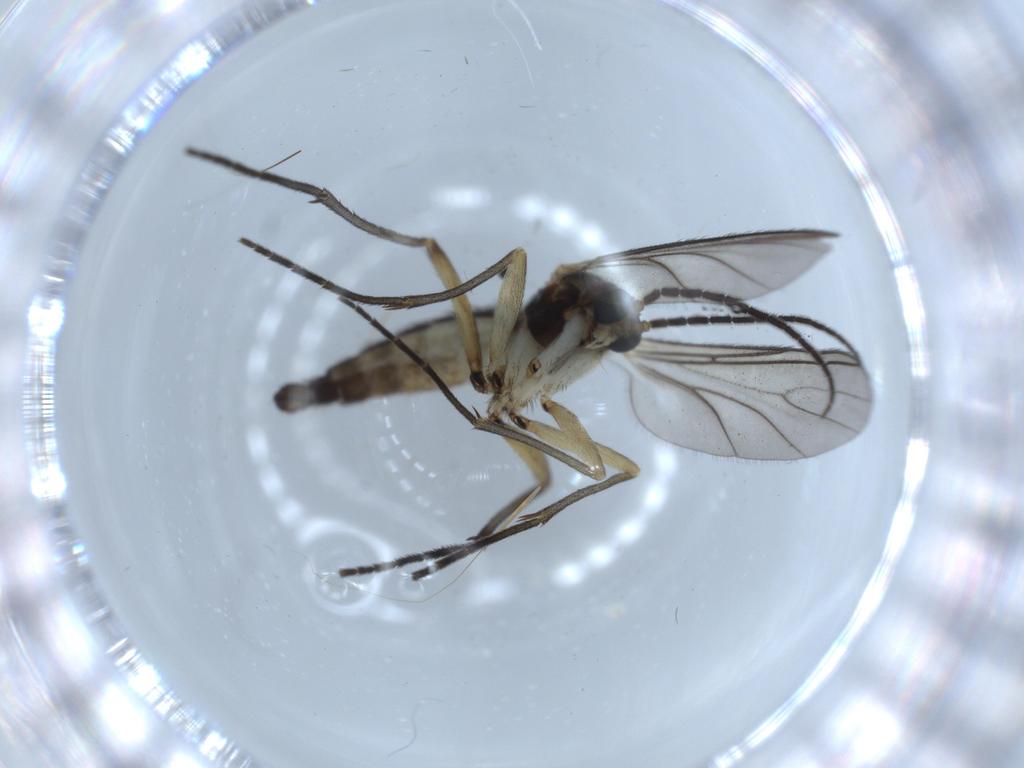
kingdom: Animalia
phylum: Arthropoda
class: Insecta
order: Diptera
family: Sciaridae
